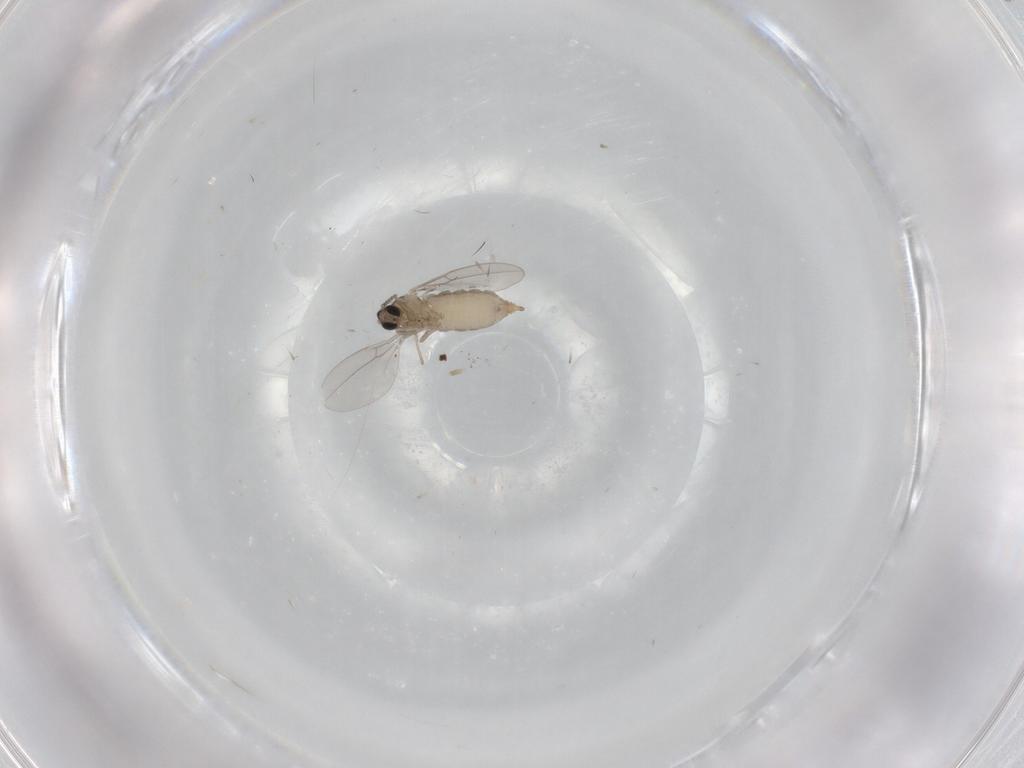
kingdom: Animalia
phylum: Arthropoda
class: Insecta
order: Diptera
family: Cecidomyiidae
